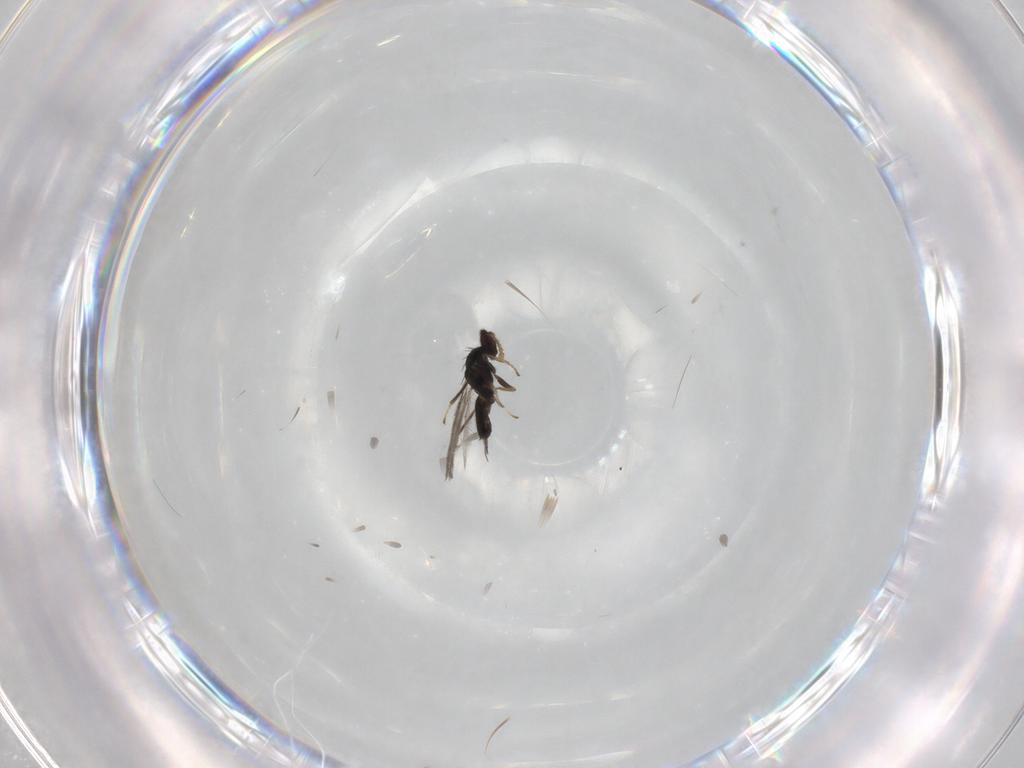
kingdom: Animalia
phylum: Arthropoda
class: Insecta
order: Hymenoptera
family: Eulophidae
